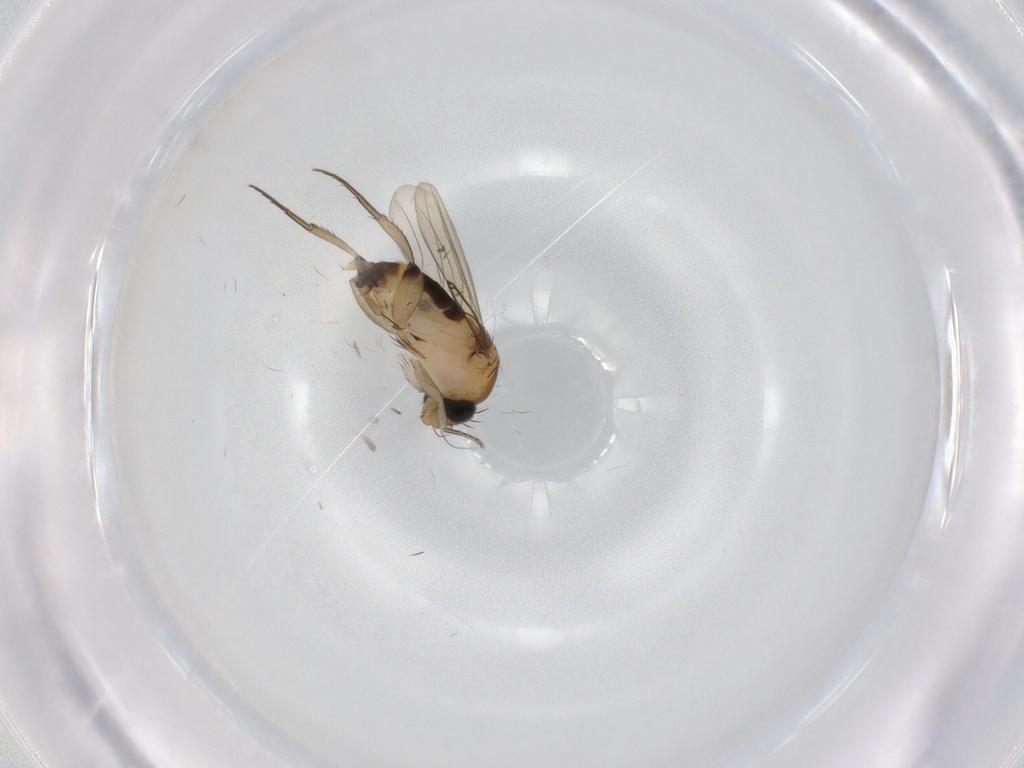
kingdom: Animalia
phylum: Arthropoda
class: Insecta
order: Diptera
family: Phoridae
